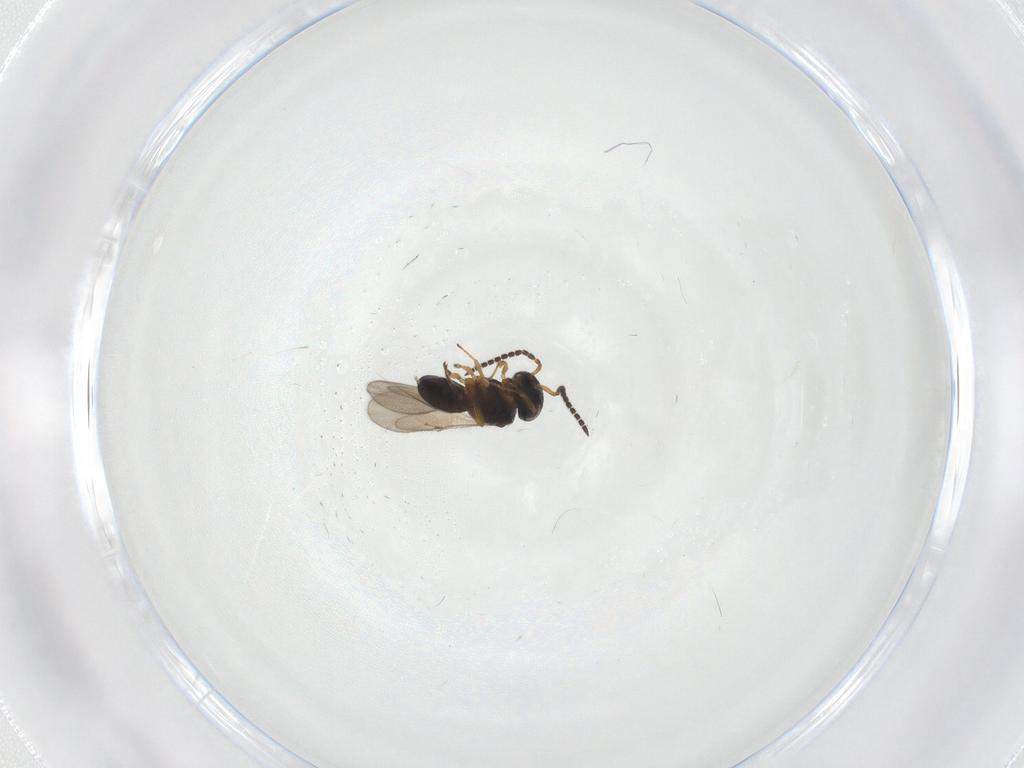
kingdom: Animalia
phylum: Arthropoda
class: Insecta
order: Hymenoptera
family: Scelionidae
